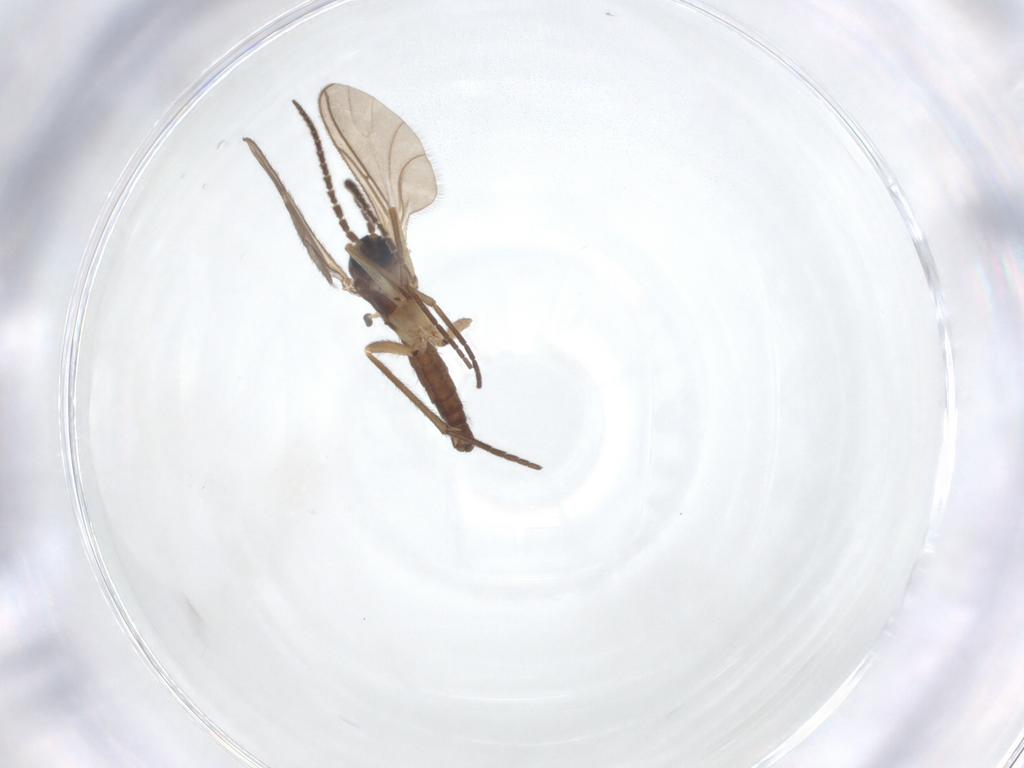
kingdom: Animalia
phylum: Arthropoda
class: Insecta
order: Diptera
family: Sciaridae
